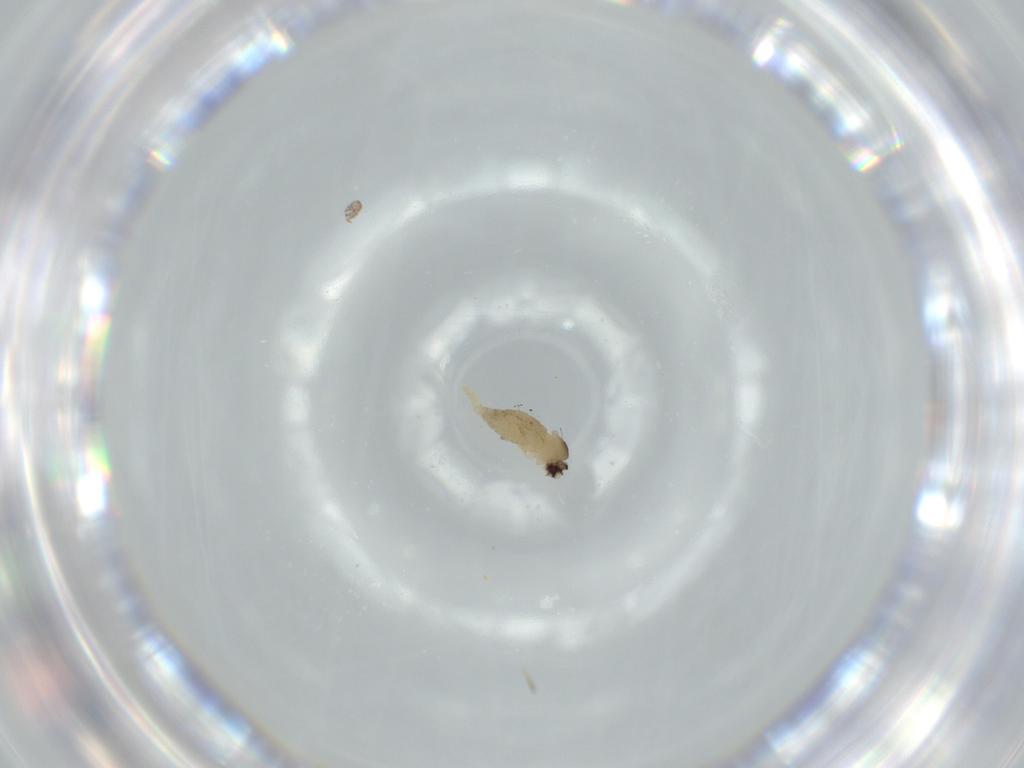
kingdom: Animalia
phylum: Arthropoda
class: Insecta
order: Diptera
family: Cecidomyiidae
